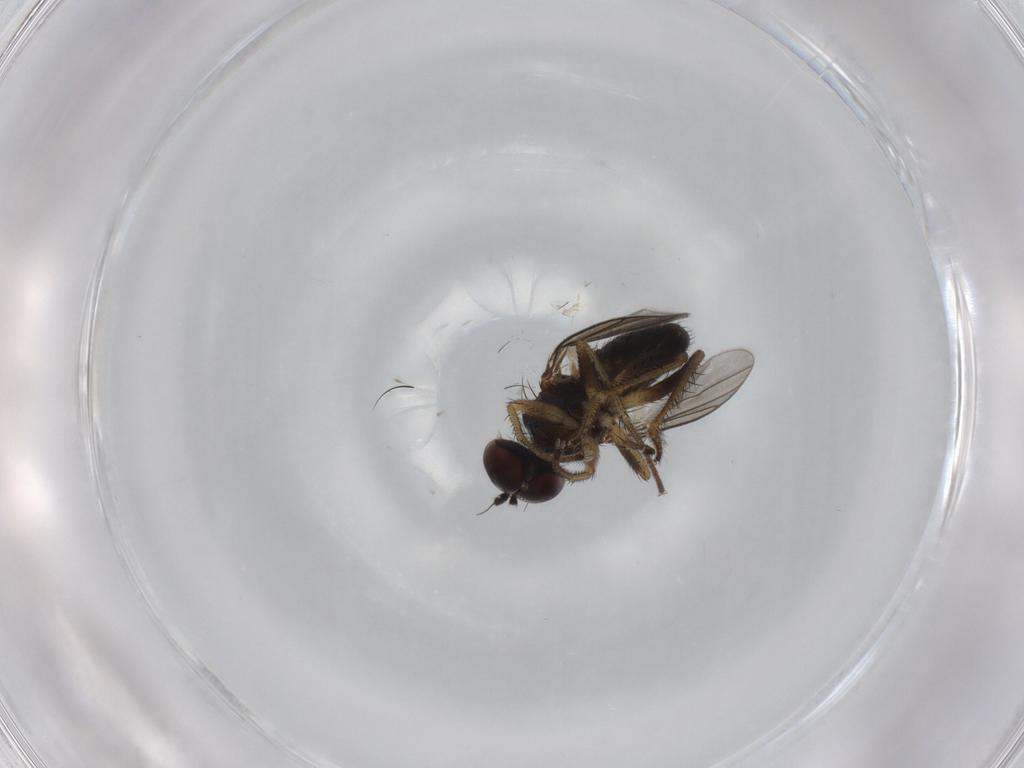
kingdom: Animalia
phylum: Arthropoda
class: Insecta
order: Diptera
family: Dolichopodidae
